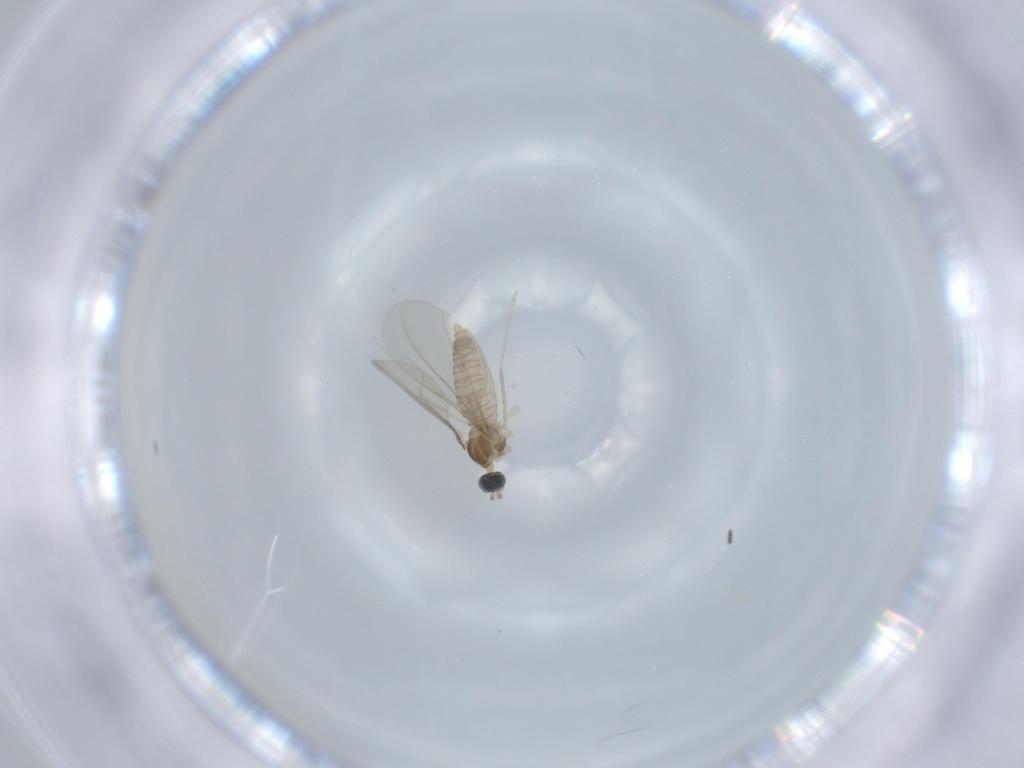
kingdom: Animalia
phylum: Arthropoda
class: Insecta
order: Diptera
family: Cecidomyiidae
